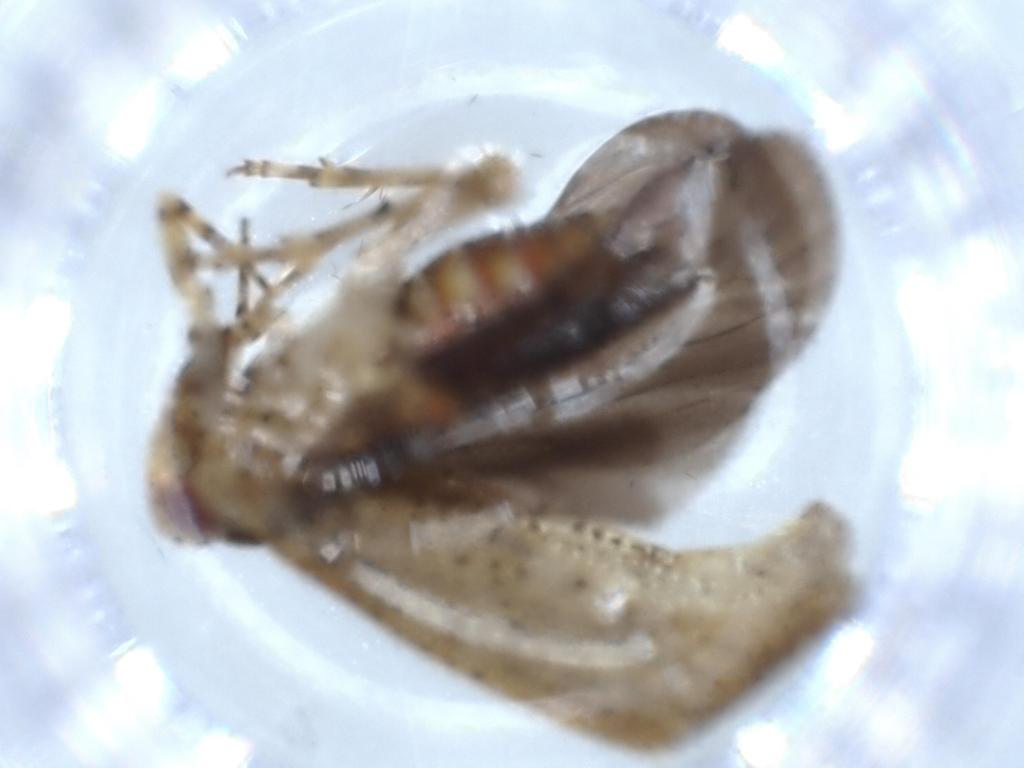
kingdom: Animalia
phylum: Arthropoda
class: Insecta
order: Hemiptera
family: Miridae
